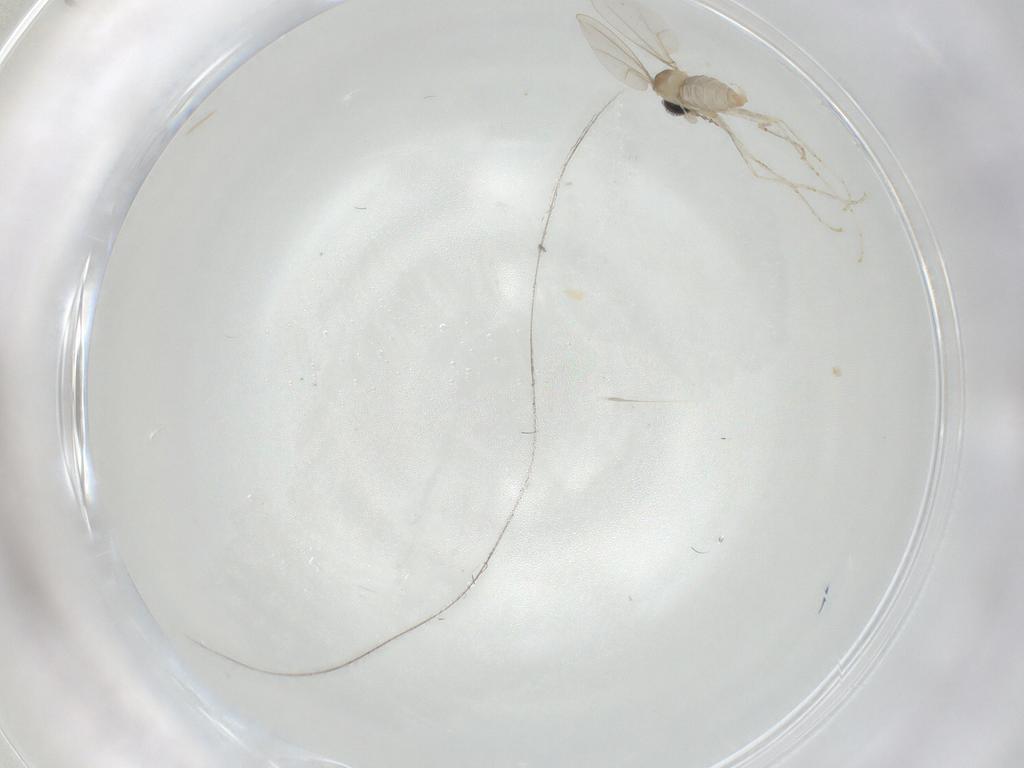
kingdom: Animalia
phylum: Arthropoda
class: Insecta
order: Diptera
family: Cecidomyiidae
